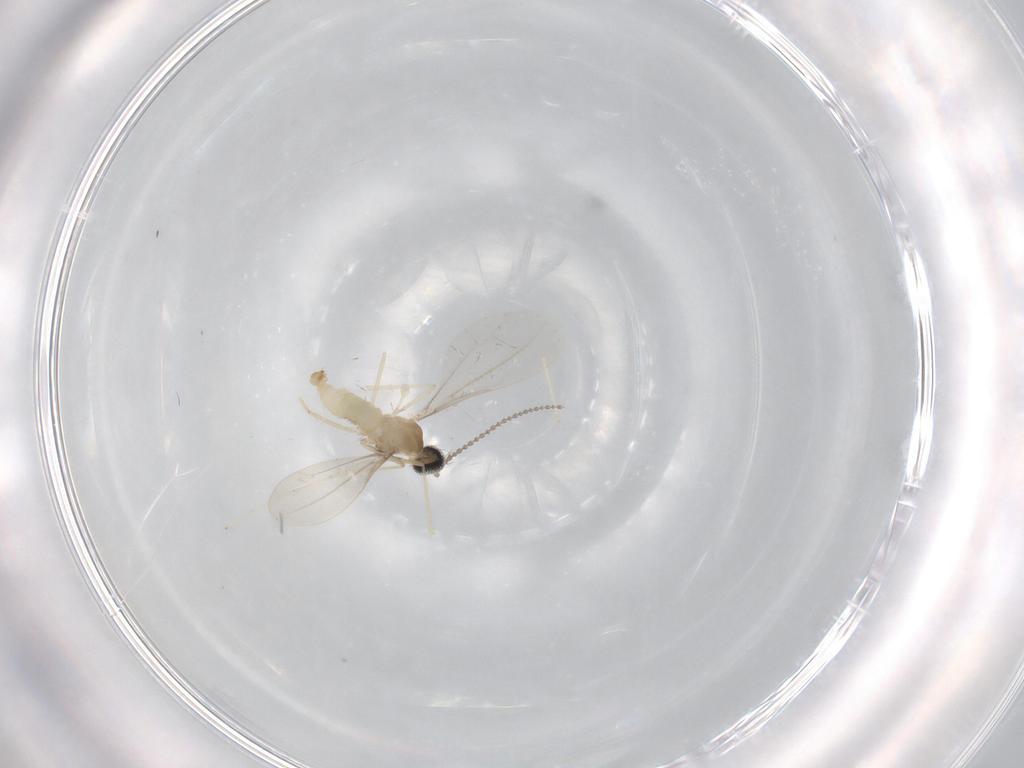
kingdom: Animalia
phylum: Arthropoda
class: Insecta
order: Diptera
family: Cecidomyiidae
